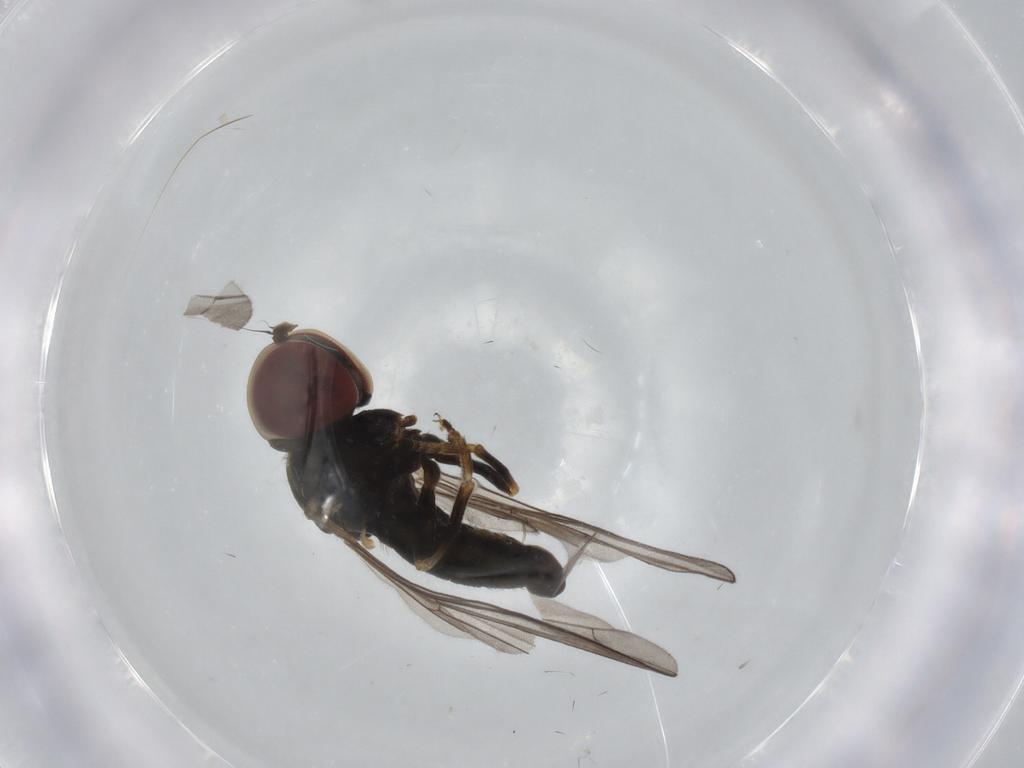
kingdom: Animalia
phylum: Arthropoda
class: Insecta
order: Diptera
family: Pipunculidae
